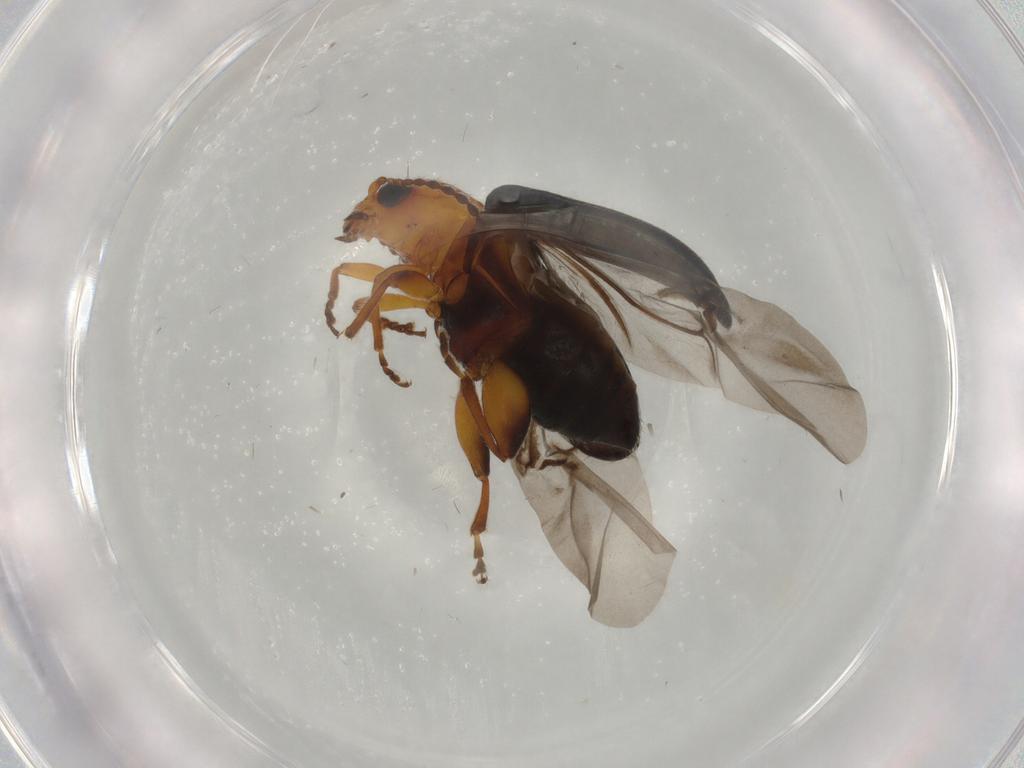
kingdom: Animalia
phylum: Arthropoda
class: Insecta
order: Coleoptera
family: Chrysomelidae
